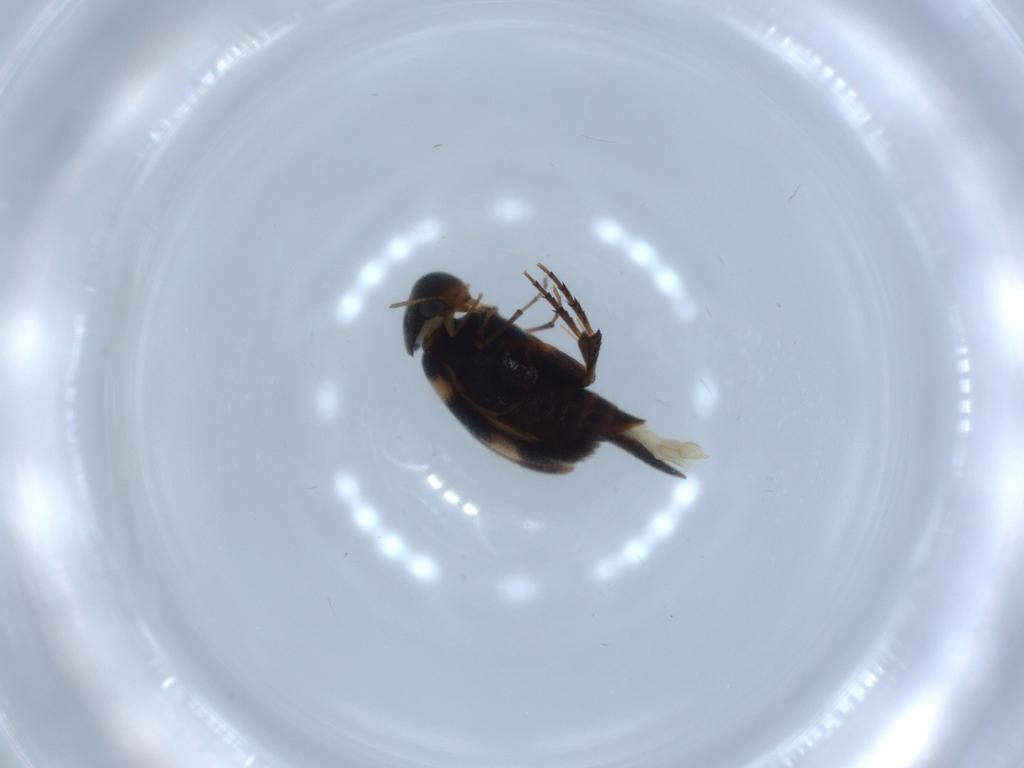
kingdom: Animalia
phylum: Arthropoda
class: Insecta
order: Coleoptera
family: Mordellidae
